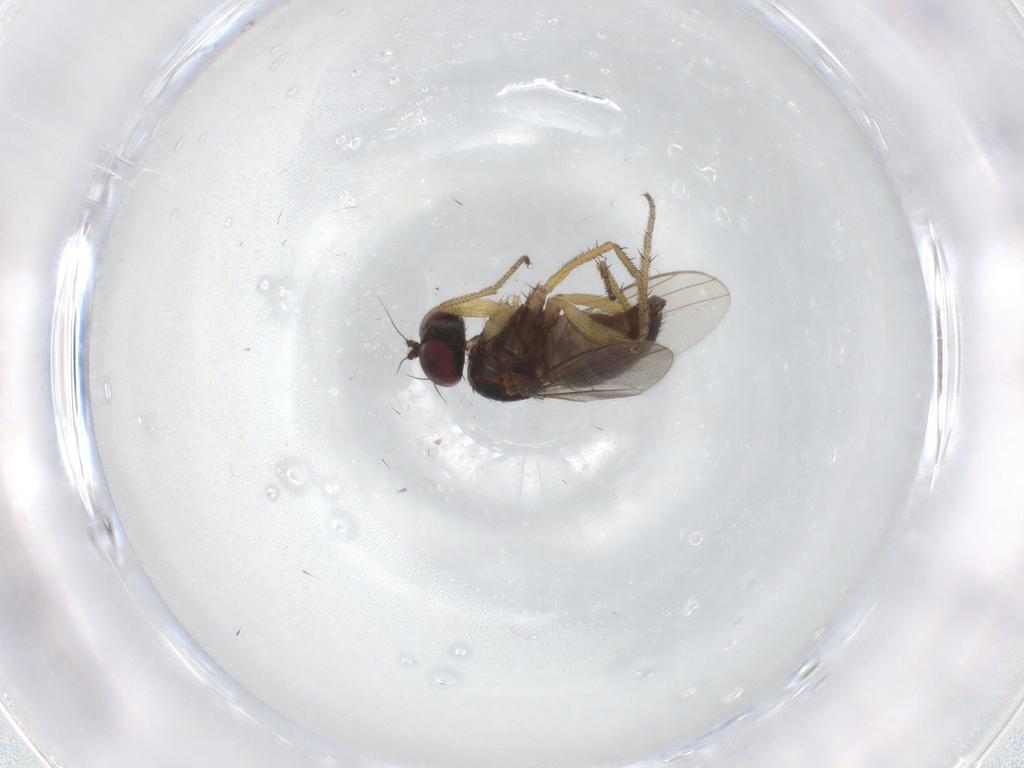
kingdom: Animalia
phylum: Arthropoda
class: Insecta
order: Diptera
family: Dolichopodidae
